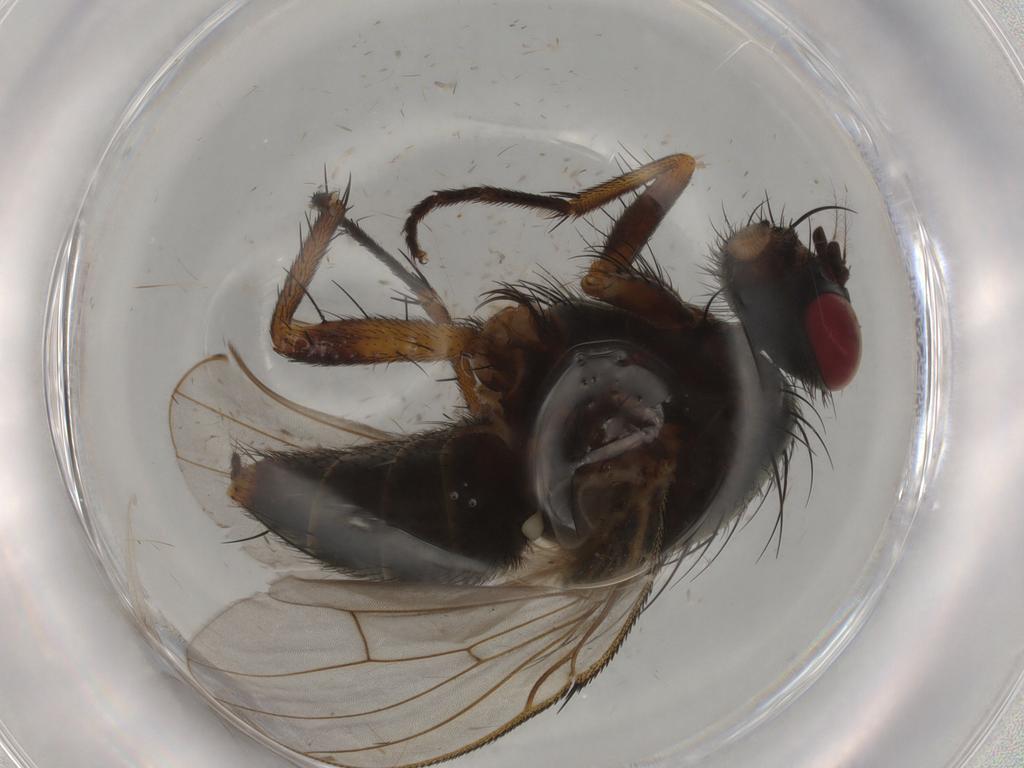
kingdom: Animalia
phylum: Arthropoda
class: Insecta
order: Diptera
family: Muscidae
